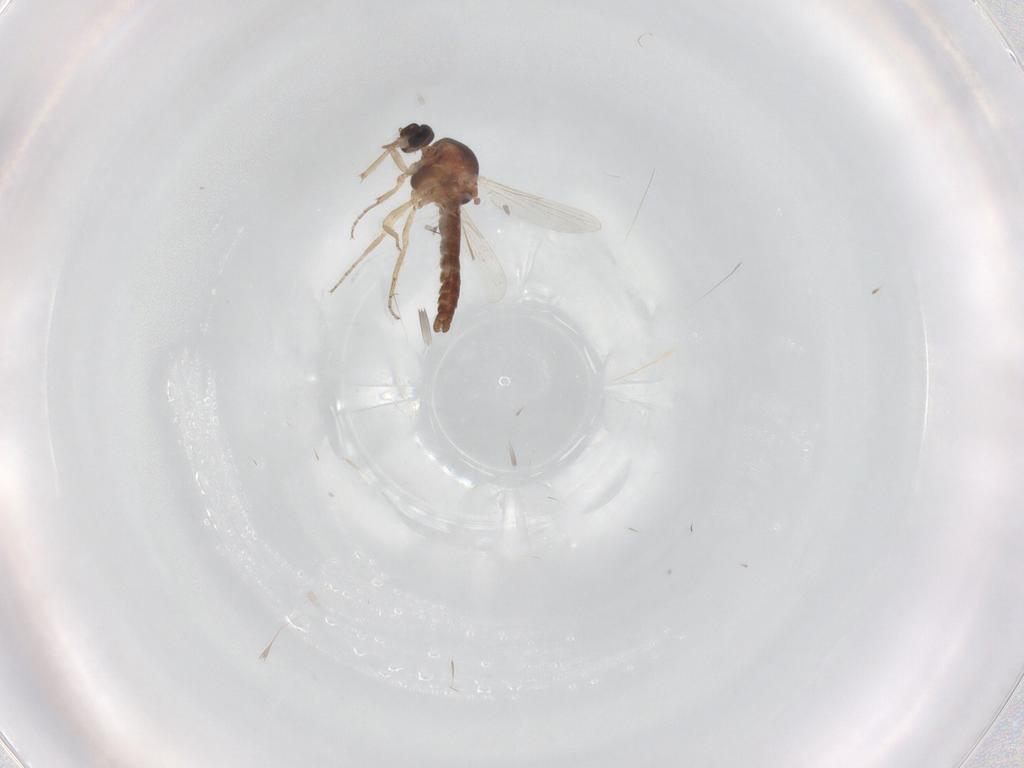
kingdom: Animalia
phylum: Arthropoda
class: Insecta
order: Diptera
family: Ceratopogonidae
